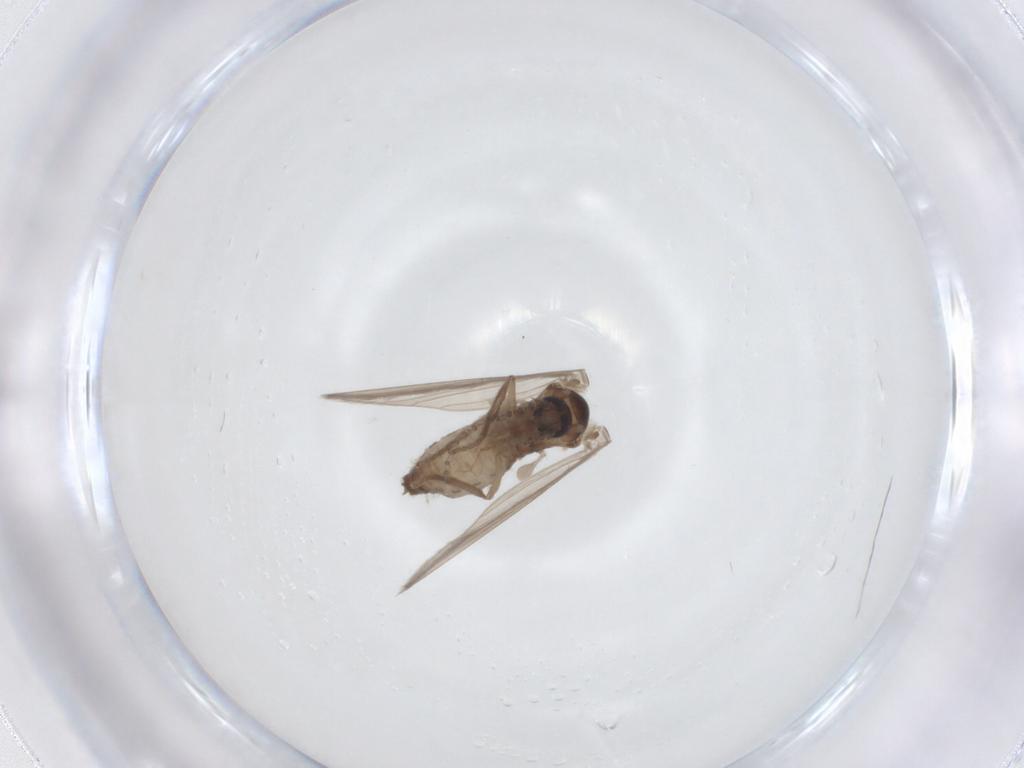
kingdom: Animalia
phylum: Arthropoda
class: Insecta
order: Diptera
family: Psychodidae
